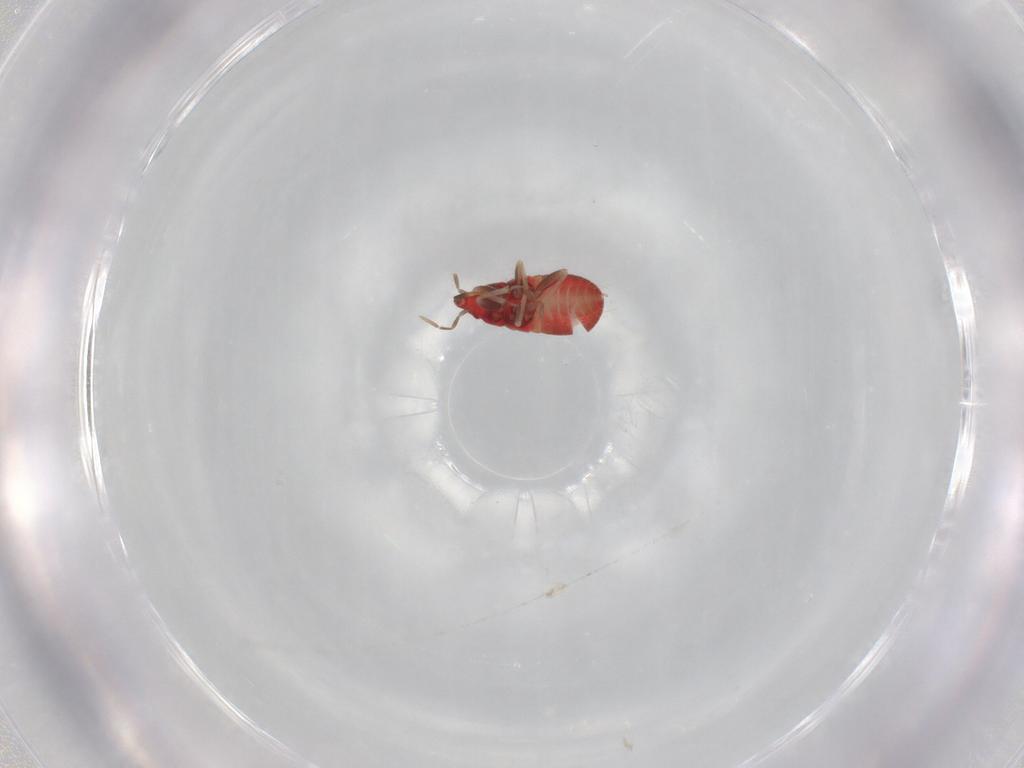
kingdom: Animalia
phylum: Arthropoda
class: Insecta
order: Hemiptera
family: Anthocoridae
